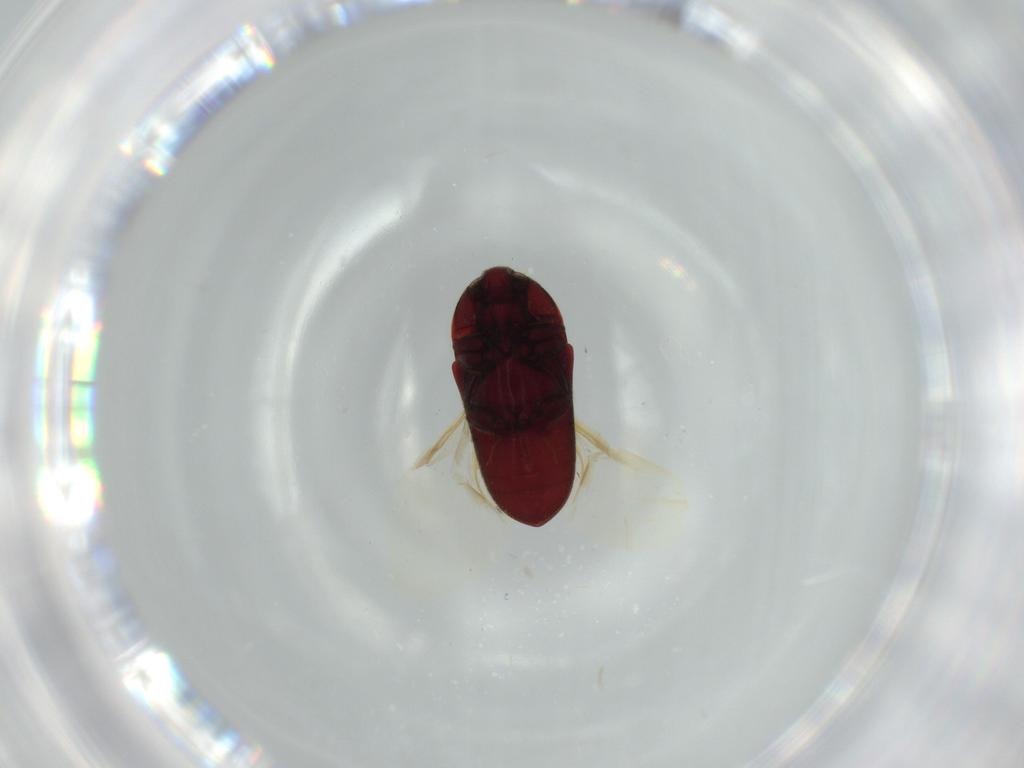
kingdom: Animalia
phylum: Arthropoda
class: Insecta
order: Coleoptera
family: Throscidae
